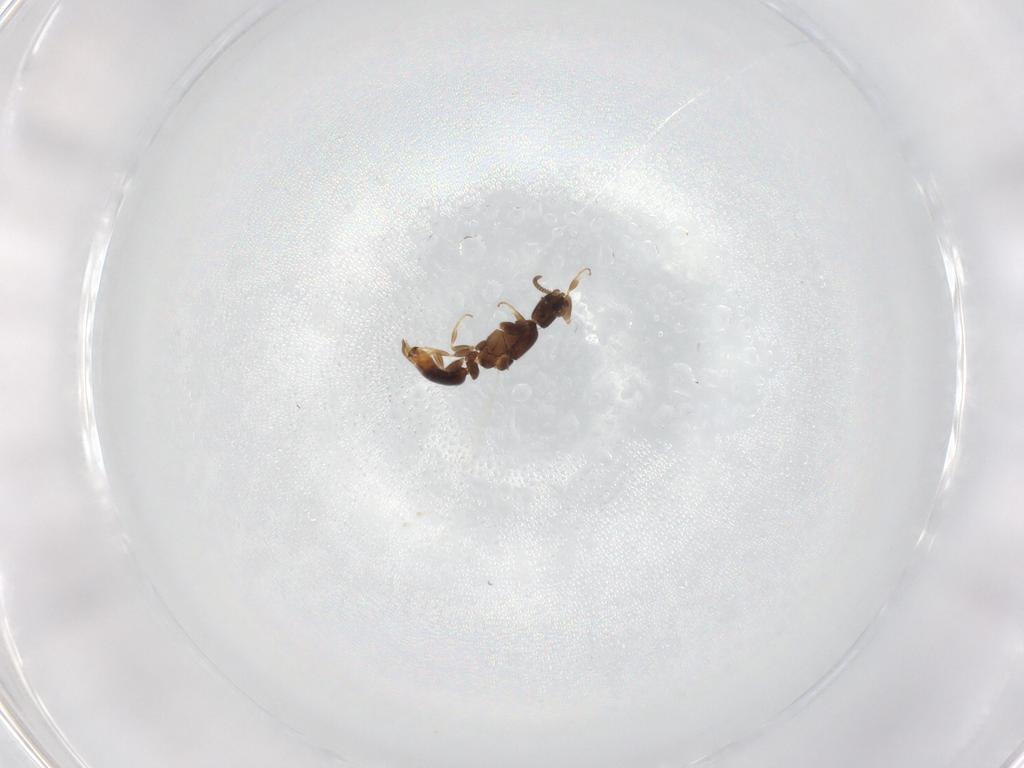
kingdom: Animalia
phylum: Arthropoda
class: Insecta
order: Hymenoptera
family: Formicidae
